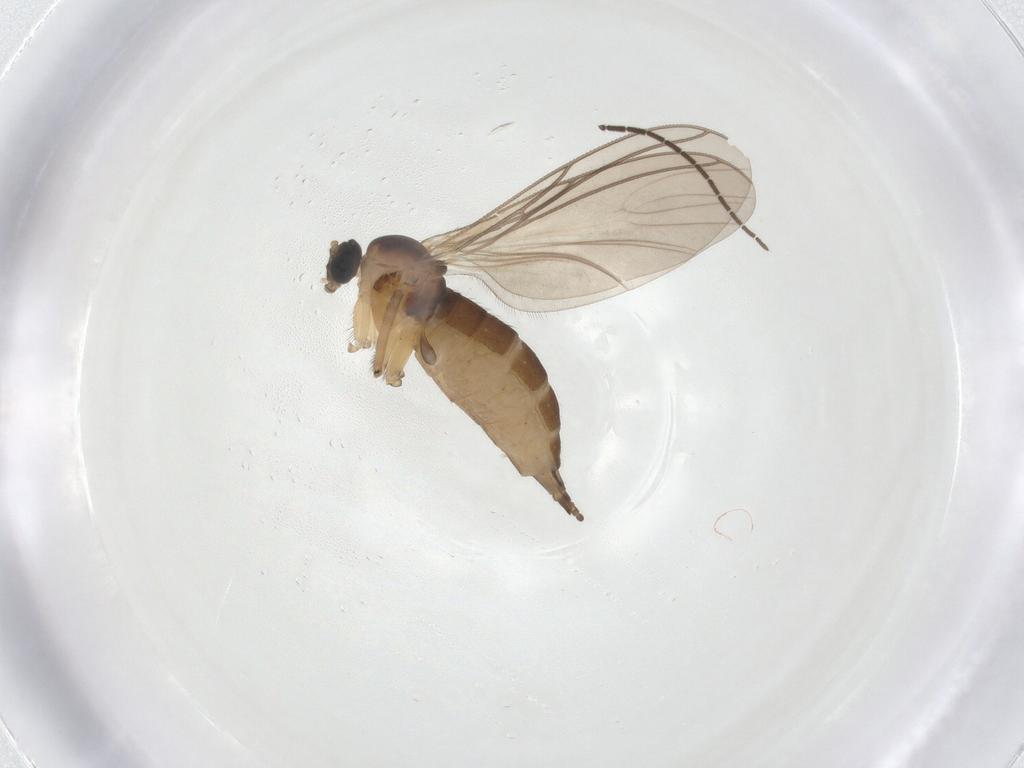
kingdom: Animalia
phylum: Arthropoda
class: Insecta
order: Diptera
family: Sciaridae
